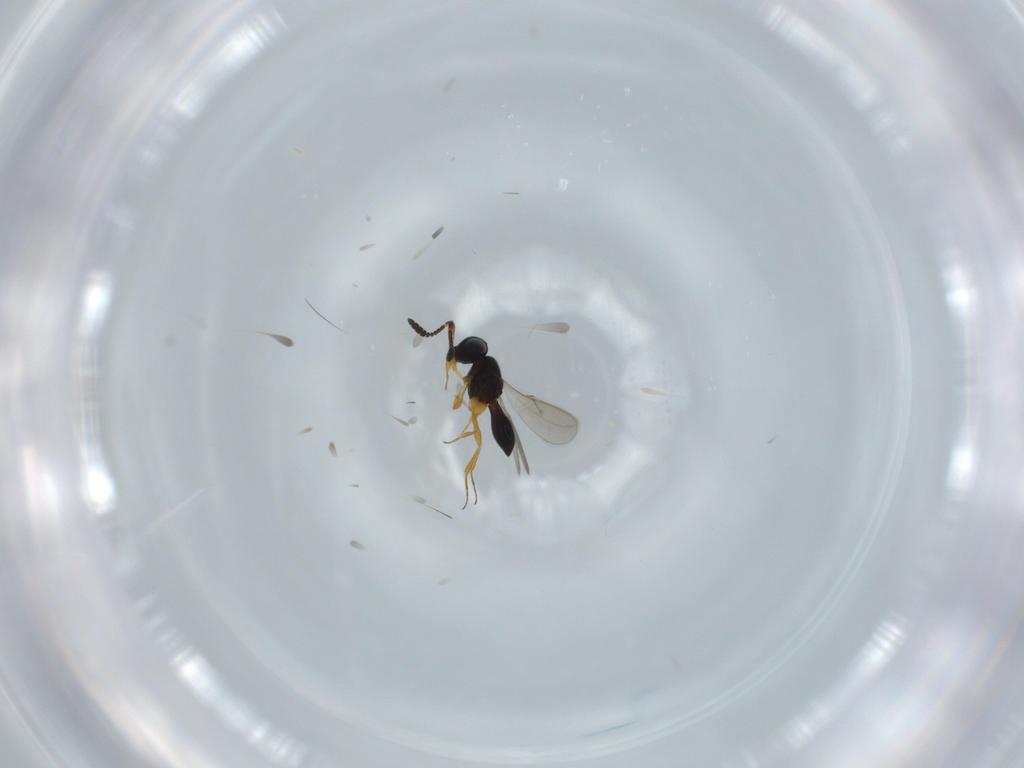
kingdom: Animalia
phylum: Arthropoda
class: Insecta
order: Hymenoptera
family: Scelionidae
